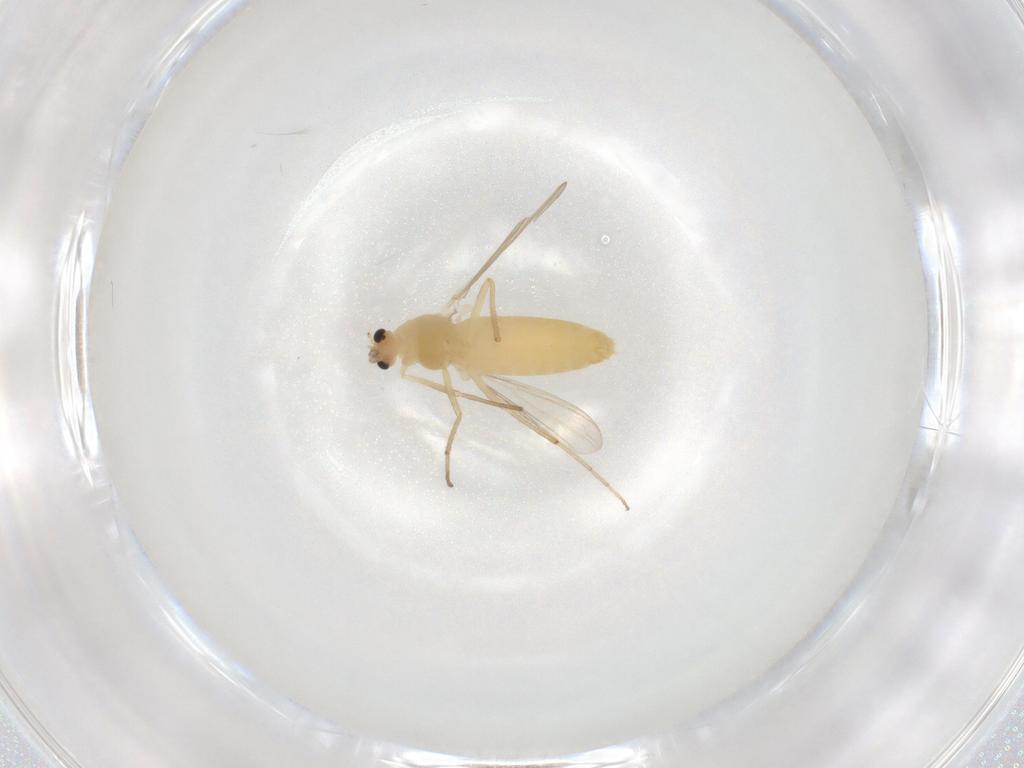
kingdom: Animalia
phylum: Arthropoda
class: Insecta
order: Diptera
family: Chironomidae
